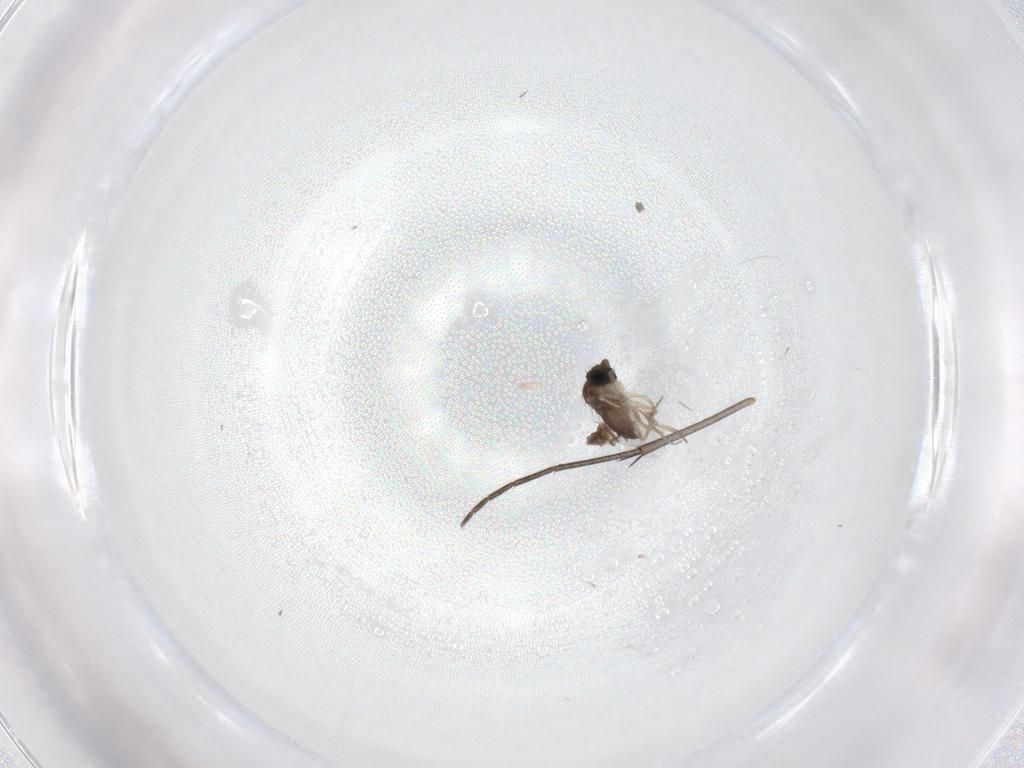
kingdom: Animalia
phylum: Arthropoda
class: Insecta
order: Diptera
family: Phoridae
